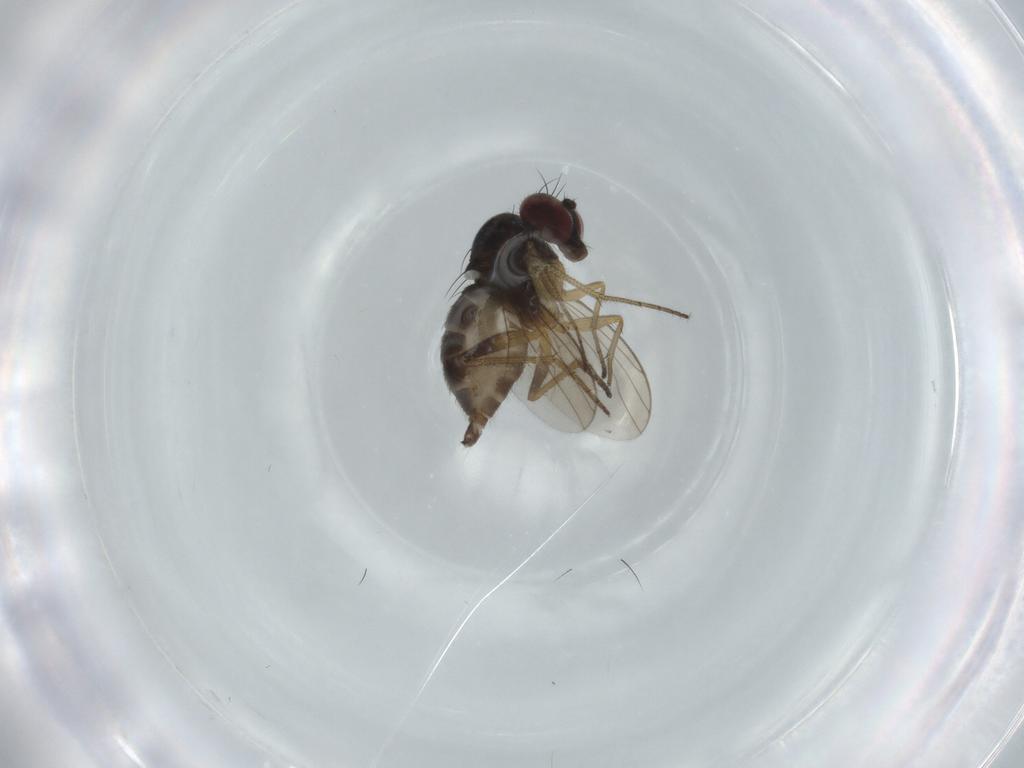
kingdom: Animalia
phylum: Arthropoda
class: Insecta
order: Diptera
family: Dolichopodidae
